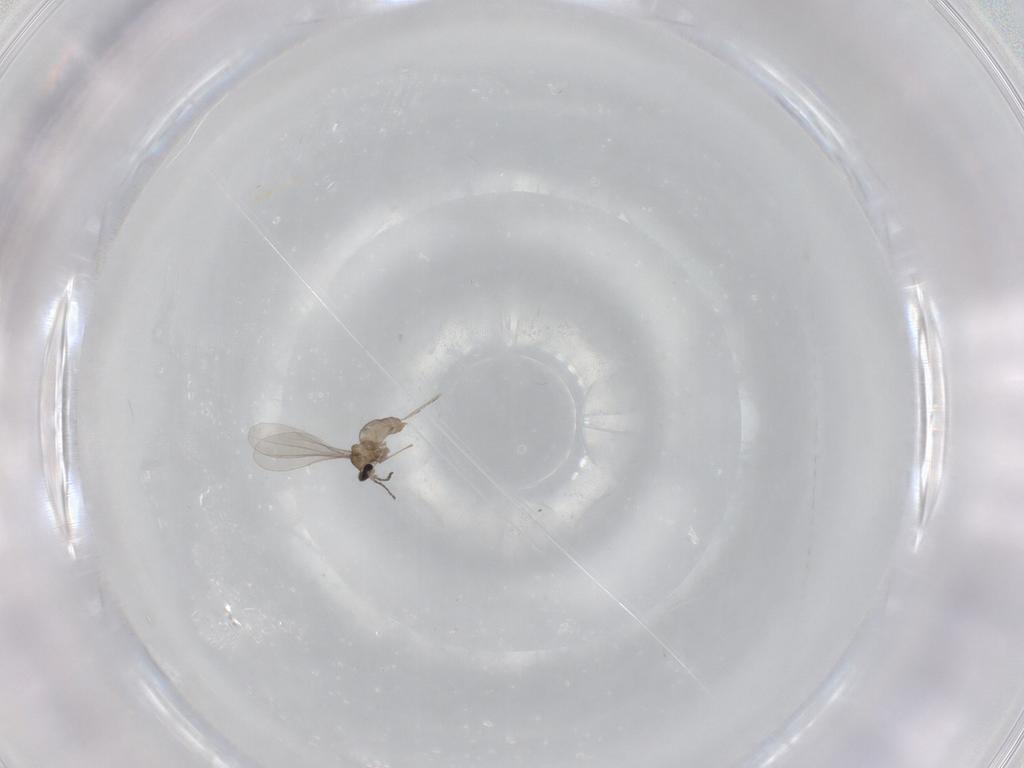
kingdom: Animalia
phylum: Arthropoda
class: Insecta
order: Diptera
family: Cecidomyiidae
